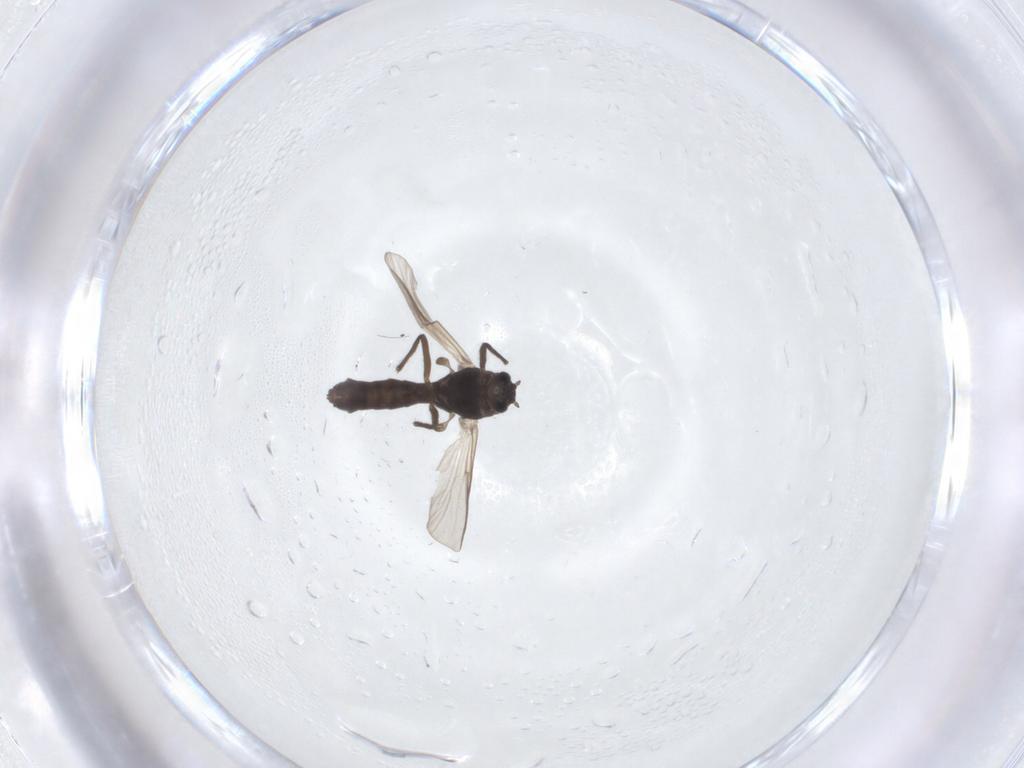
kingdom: Animalia
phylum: Arthropoda
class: Insecta
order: Diptera
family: Chironomidae
